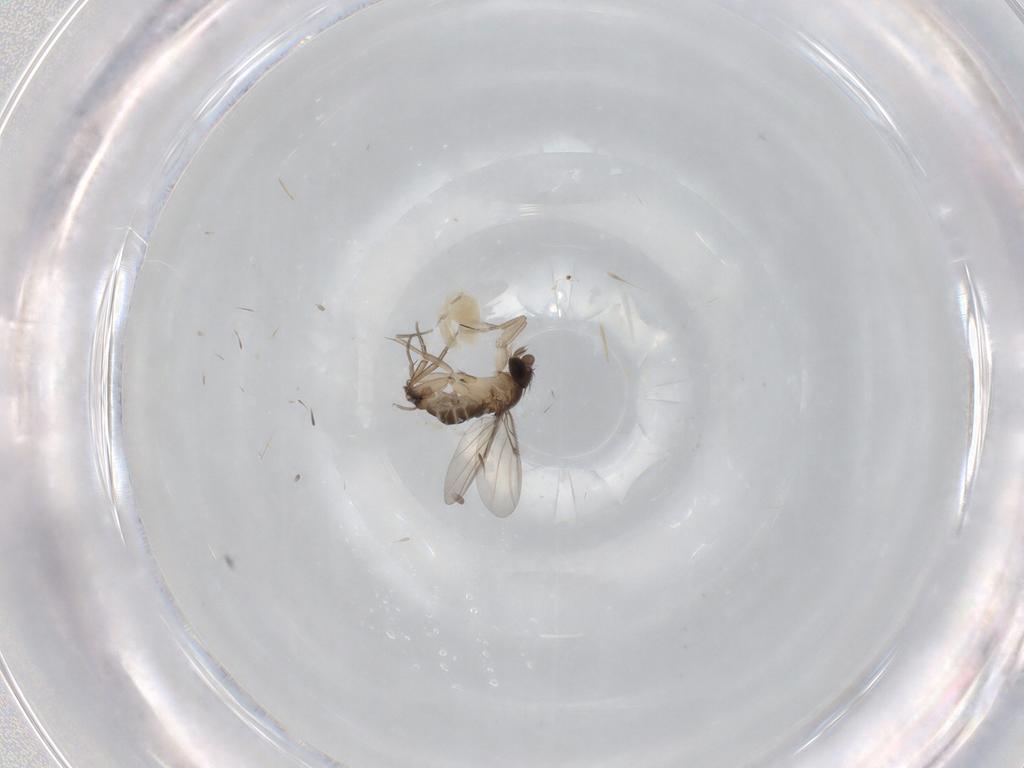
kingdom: Animalia
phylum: Arthropoda
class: Insecta
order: Diptera
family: Phoridae
